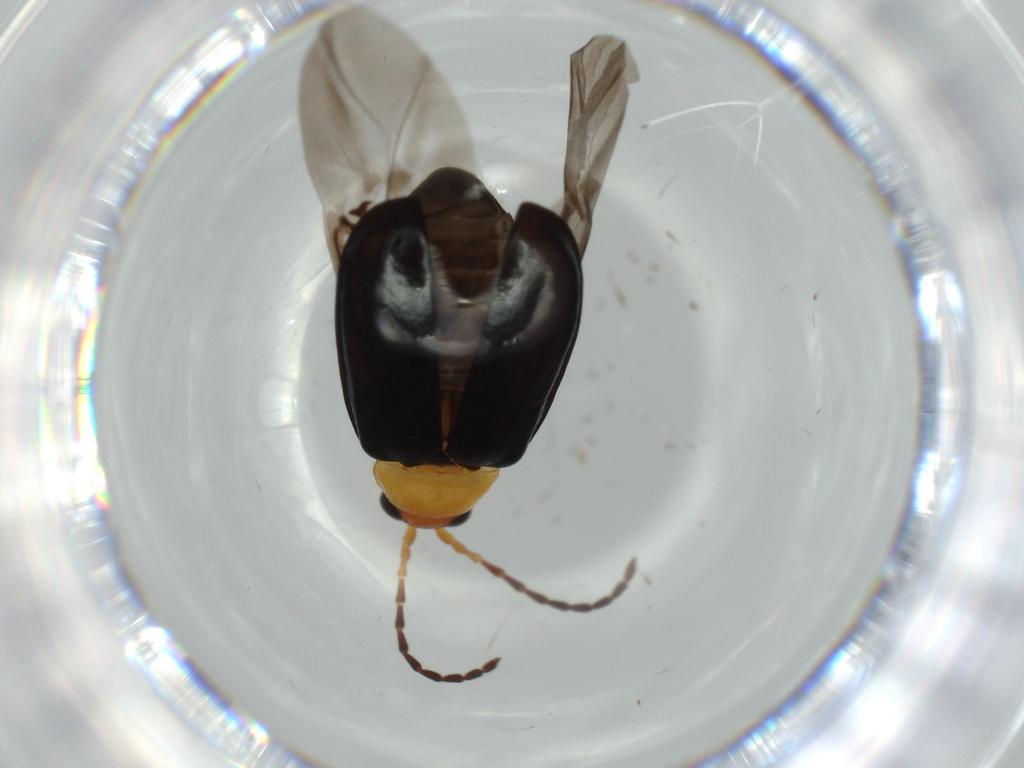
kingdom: Animalia
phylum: Arthropoda
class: Insecta
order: Coleoptera
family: Chrysomelidae
